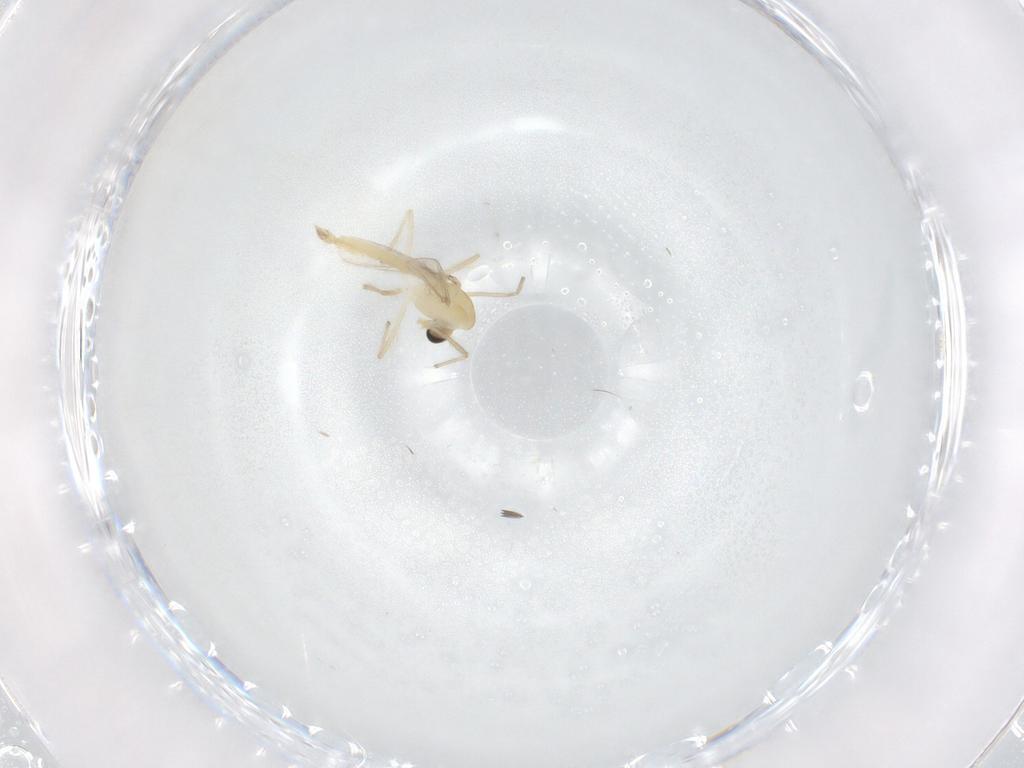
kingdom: Animalia
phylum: Arthropoda
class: Insecta
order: Diptera
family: Chironomidae
